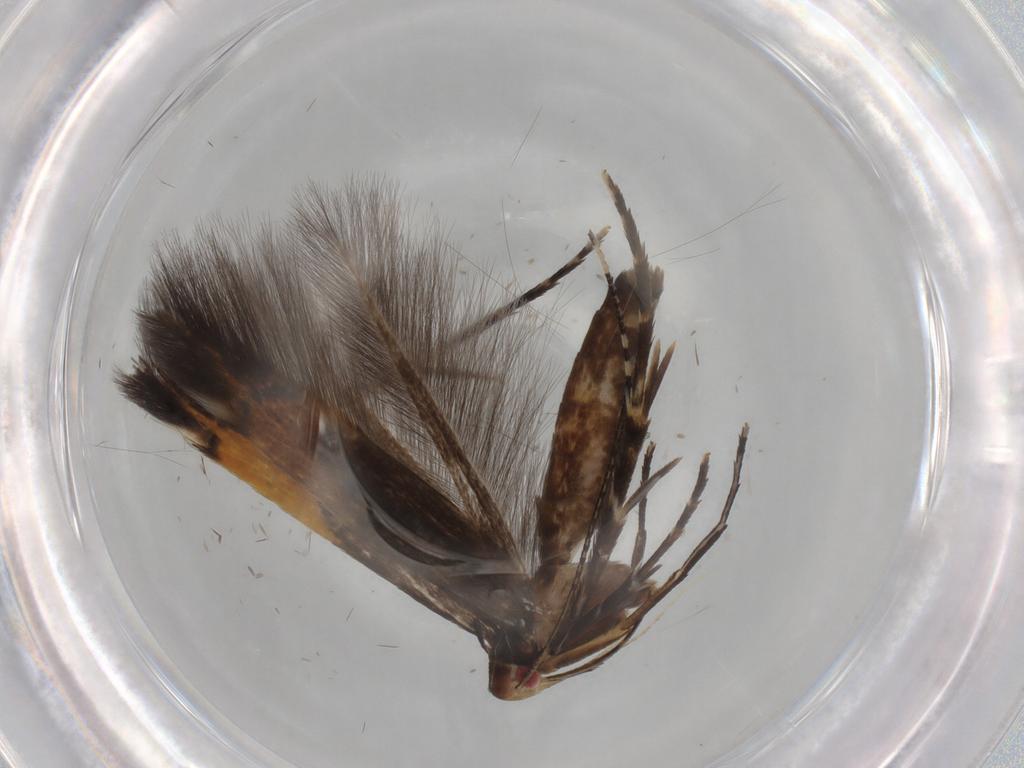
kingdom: Animalia
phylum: Arthropoda
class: Insecta
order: Lepidoptera
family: Cosmopterigidae
